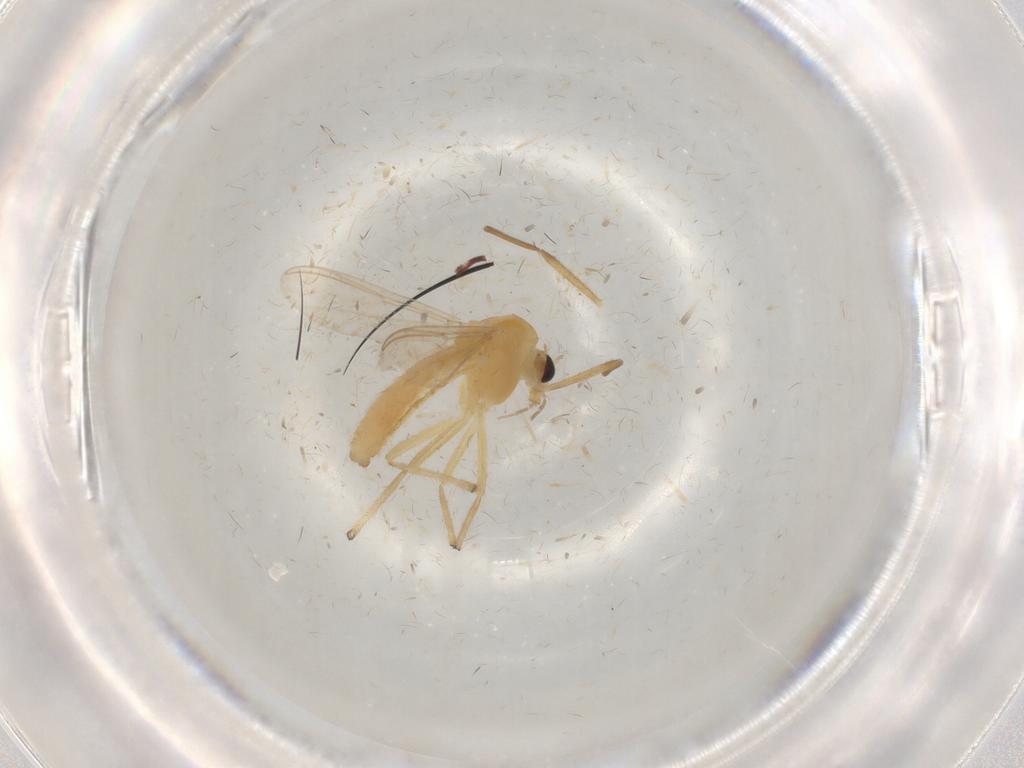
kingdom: Animalia
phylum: Arthropoda
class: Insecta
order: Diptera
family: Chironomidae
